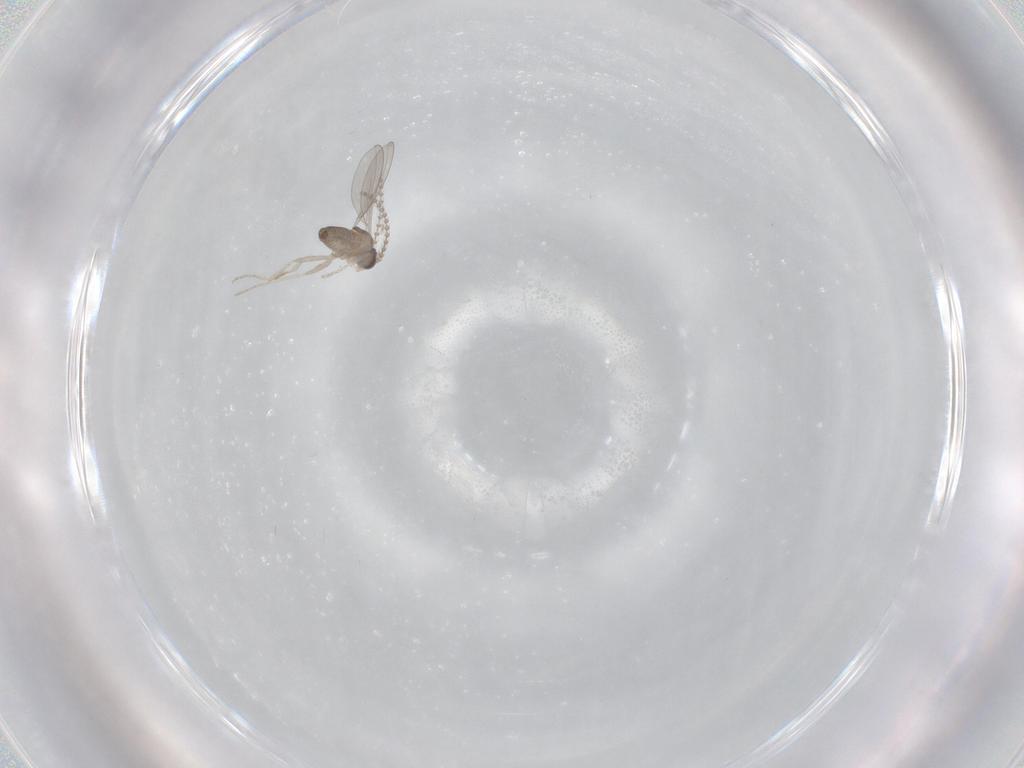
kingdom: Animalia
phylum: Arthropoda
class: Insecta
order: Diptera
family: Cecidomyiidae
